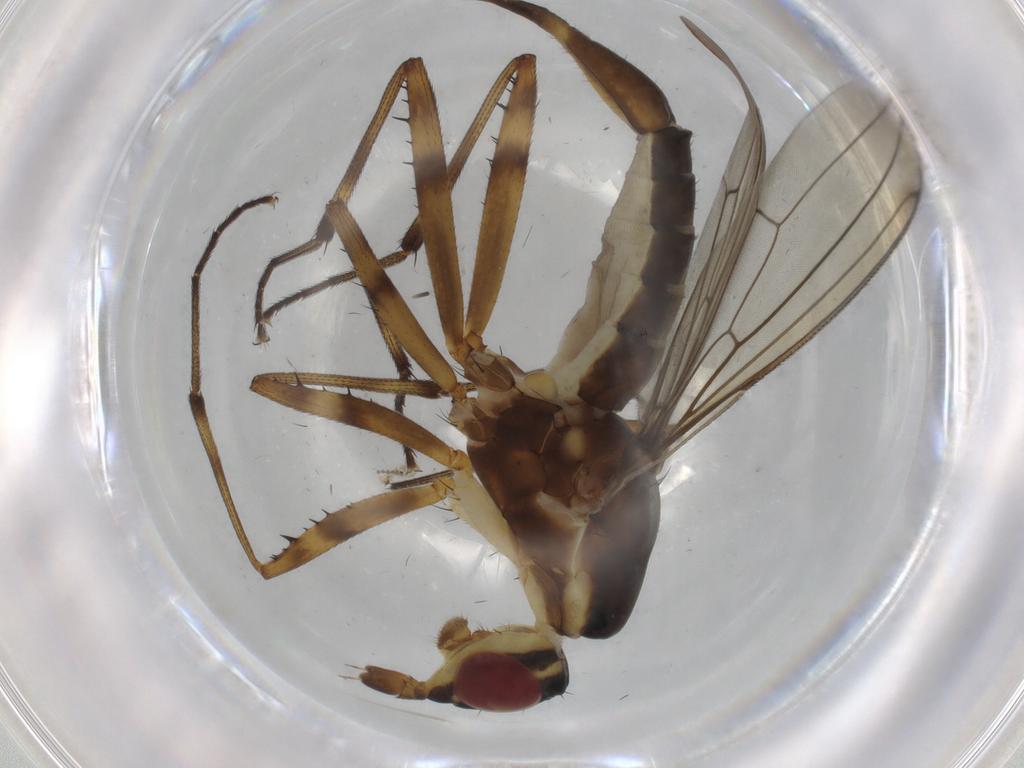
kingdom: Animalia
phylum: Arthropoda
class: Insecta
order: Diptera
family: Neriidae
